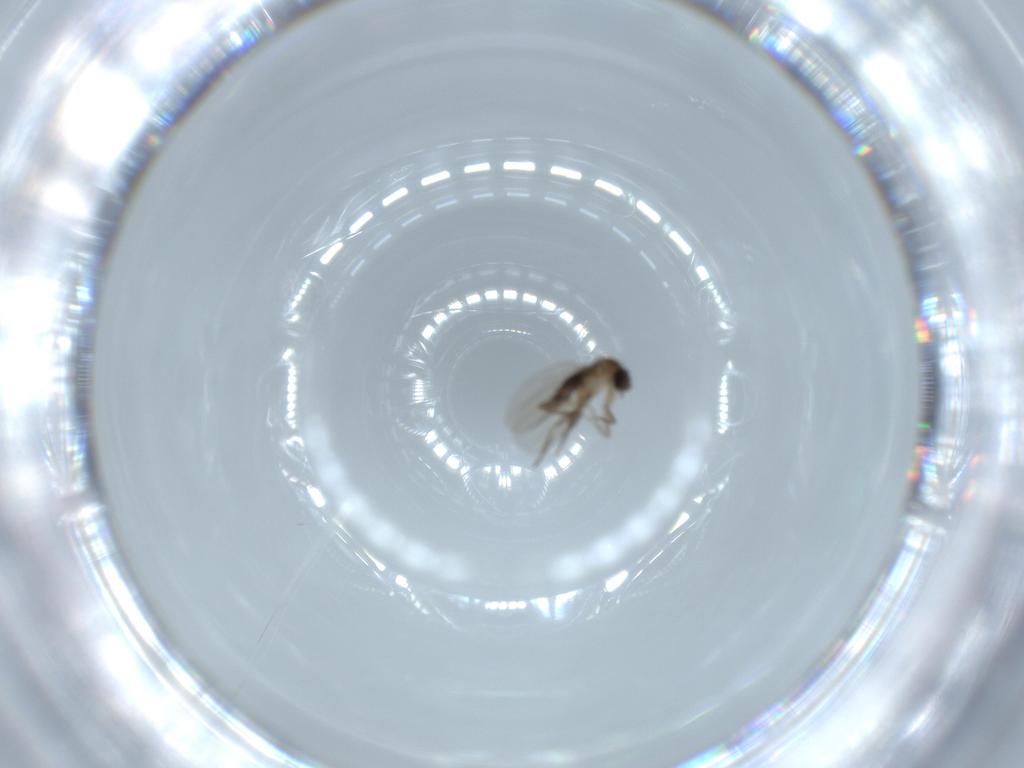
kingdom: Animalia
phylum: Arthropoda
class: Insecta
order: Diptera
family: Phoridae
